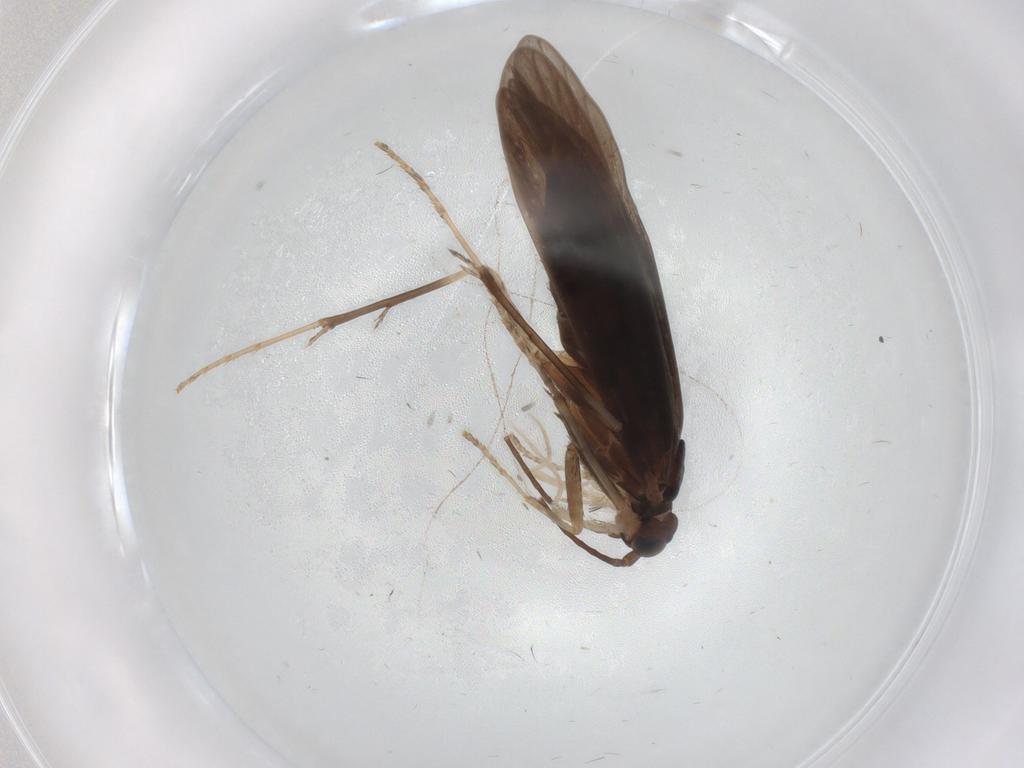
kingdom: Animalia
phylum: Arthropoda
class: Insecta
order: Trichoptera
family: Xiphocentronidae
